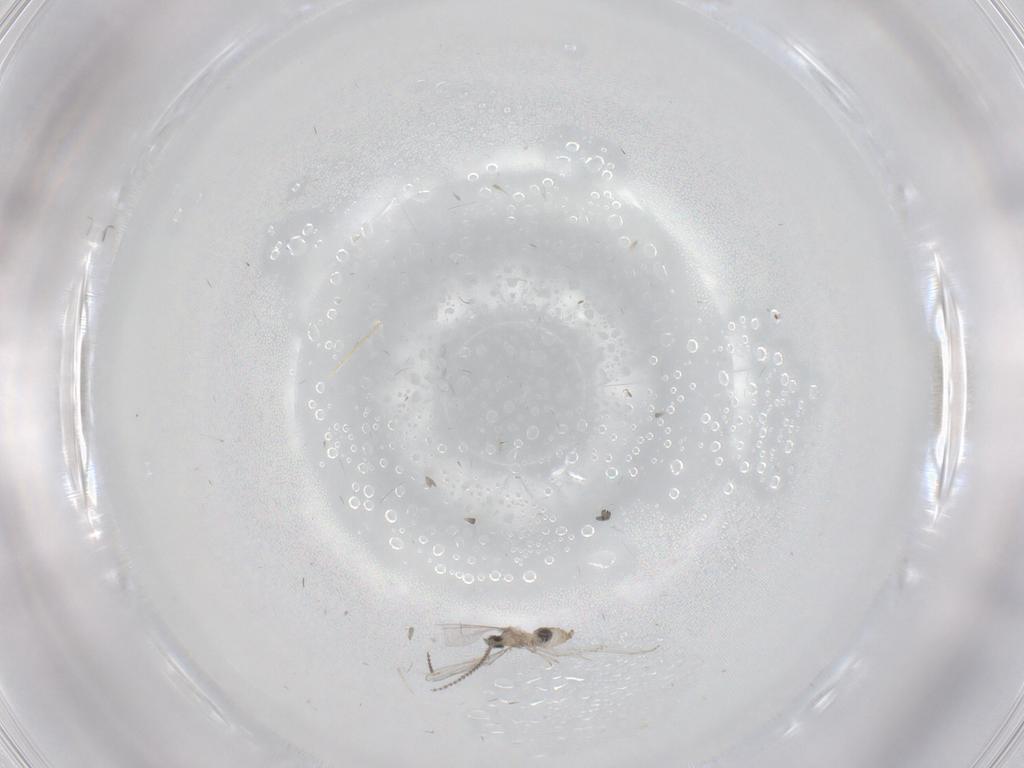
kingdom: Animalia
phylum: Arthropoda
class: Insecta
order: Diptera
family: Cecidomyiidae
